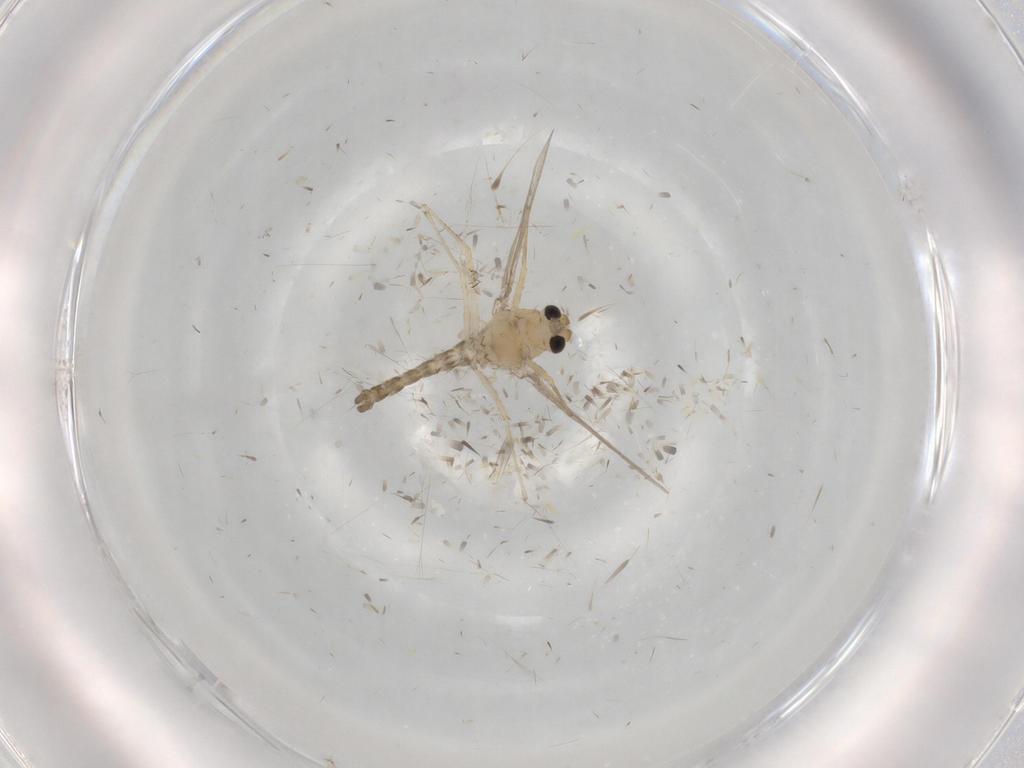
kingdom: Animalia
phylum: Arthropoda
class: Insecta
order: Diptera
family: Chironomidae
